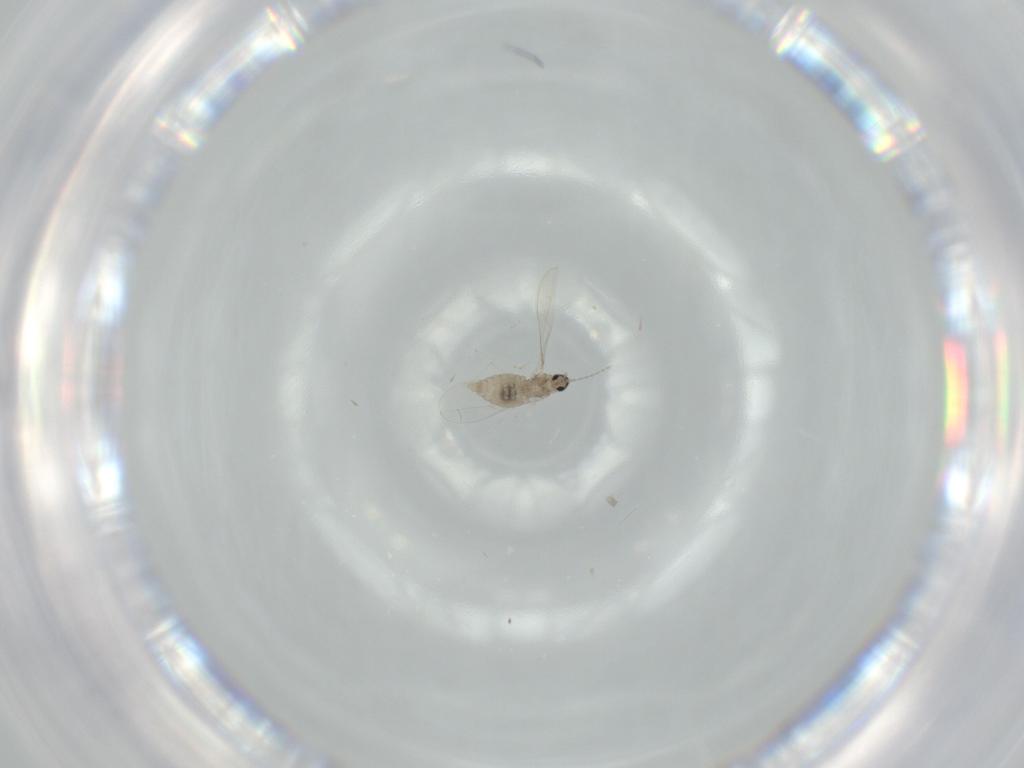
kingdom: Animalia
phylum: Arthropoda
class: Insecta
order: Diptera
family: Cecidomyiidae
